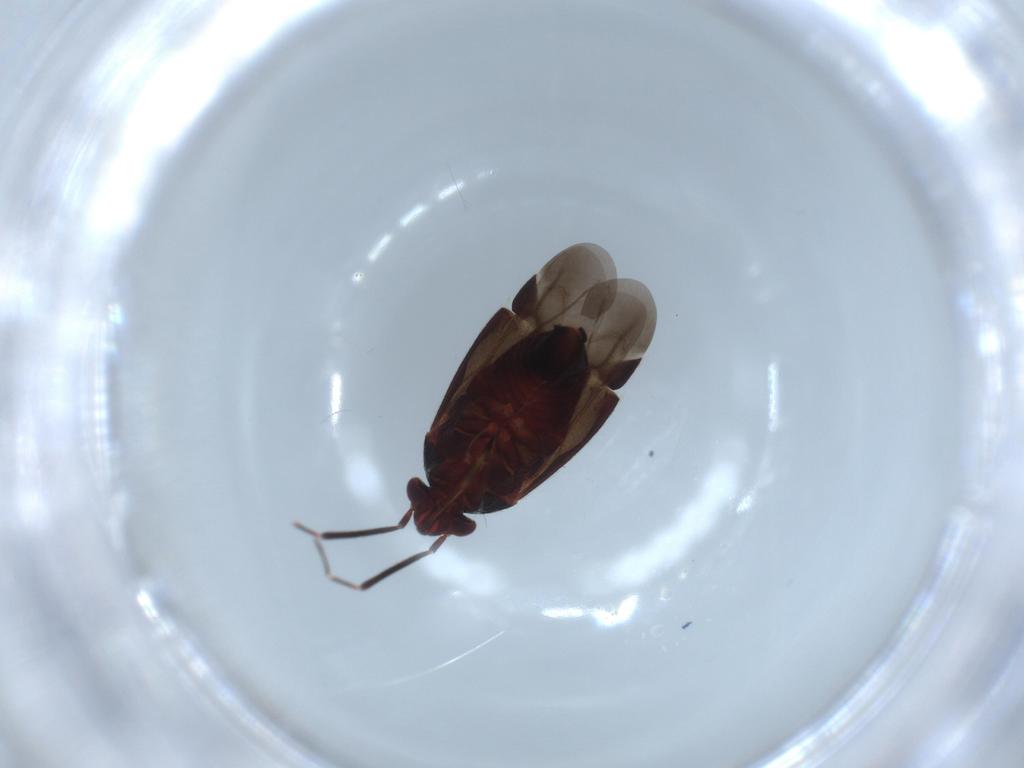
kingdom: Animalia
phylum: Arthropoda
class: Insecta
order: Hemiptera
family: Miridae
